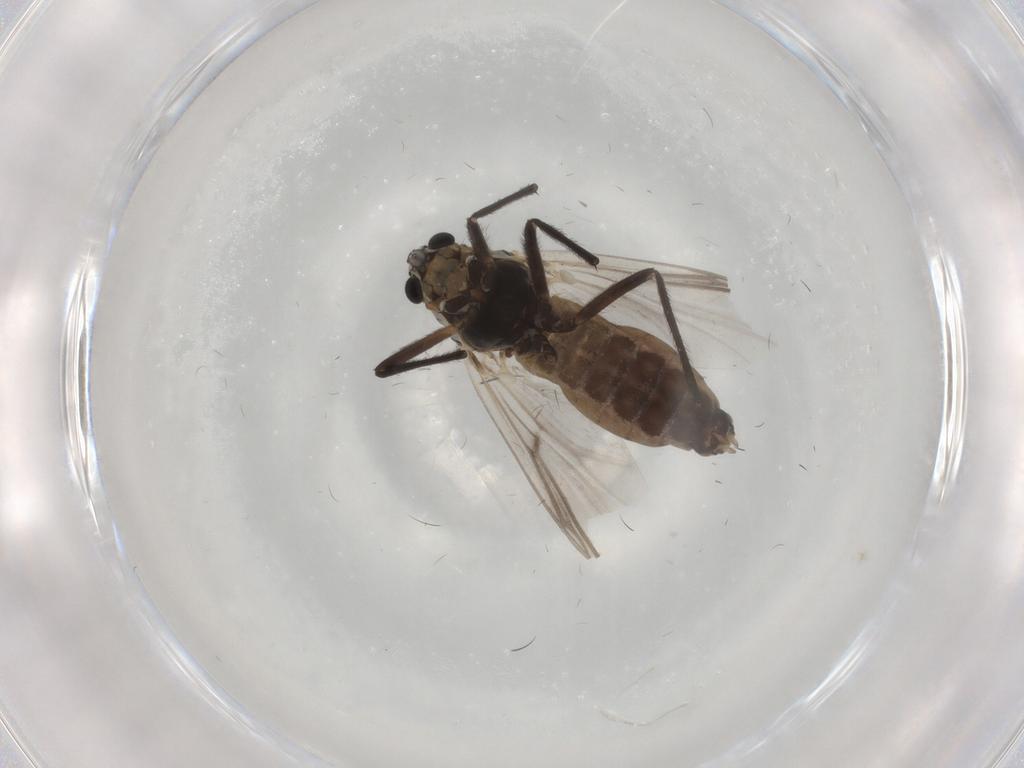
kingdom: Animalia
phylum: Arthropoda
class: Insecta
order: Diptera
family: Chironomidae
